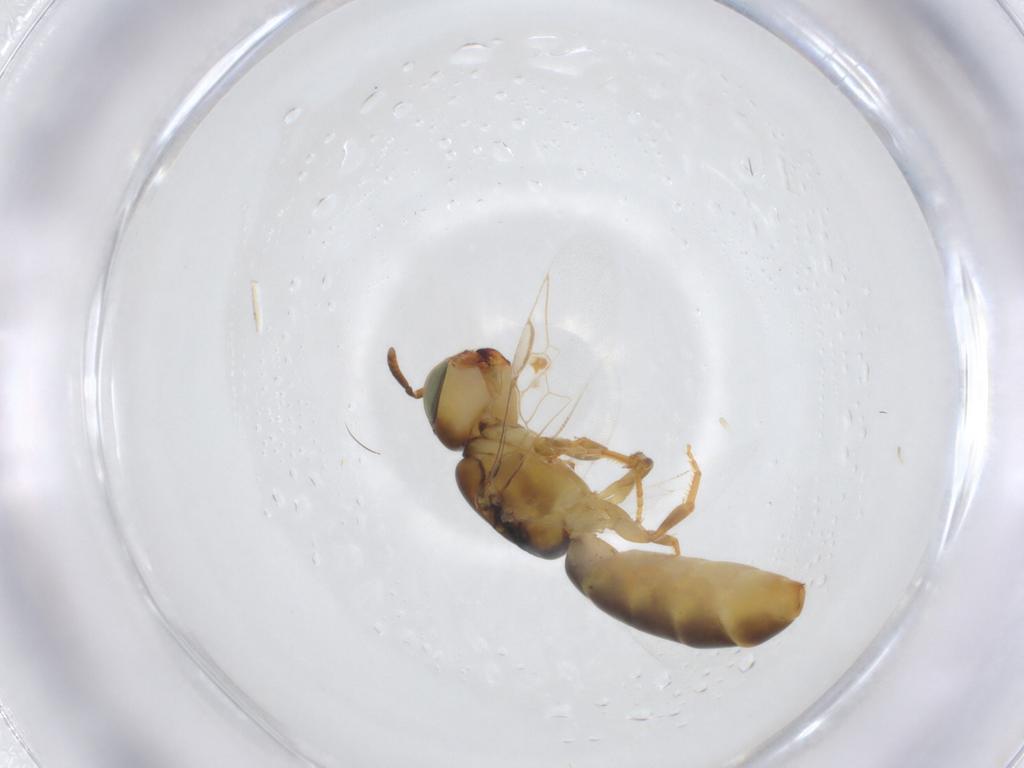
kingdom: Animalia
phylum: Arthropoda
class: Insecta
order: Hymenoptera
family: Colletidae
